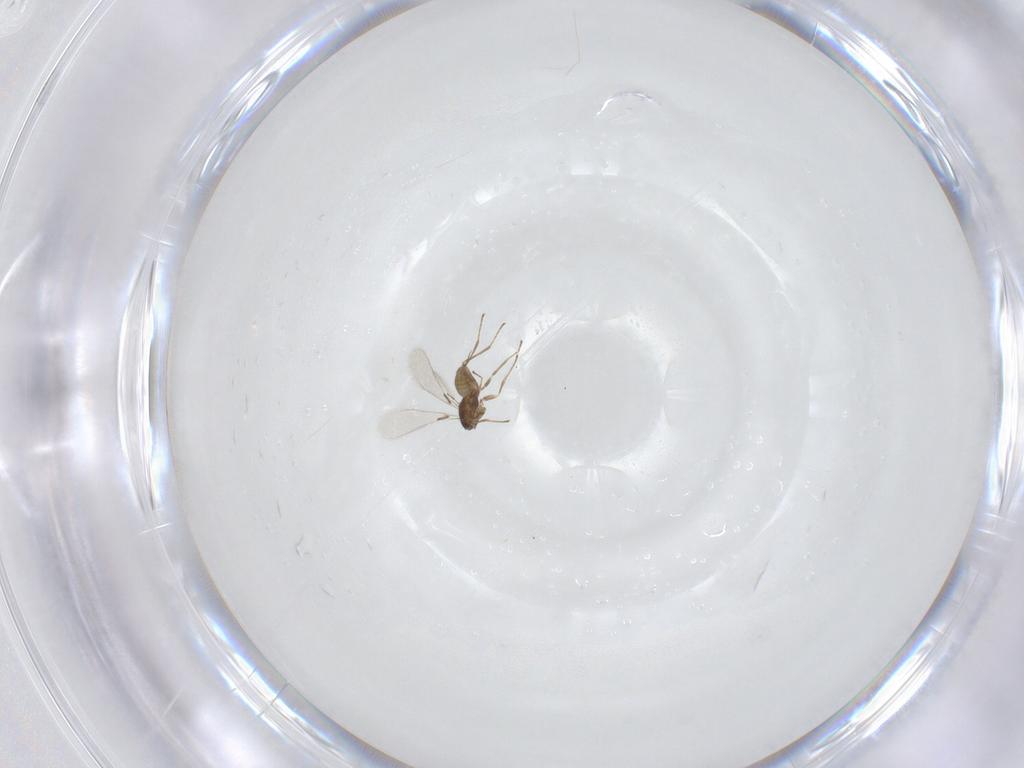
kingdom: Animalia
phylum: Arthropoda
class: Insecta
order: Hymenoptera
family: Mymaridae
